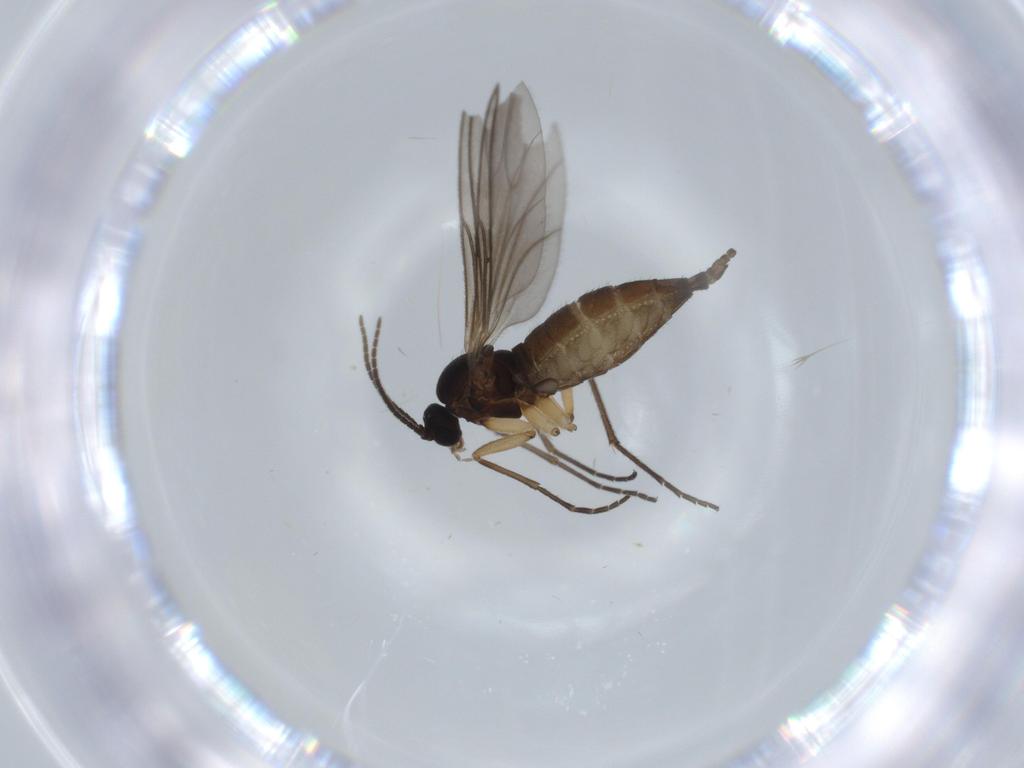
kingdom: Animalia
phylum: Arthropoda
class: Insecta
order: Diptera
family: Sciaridae
